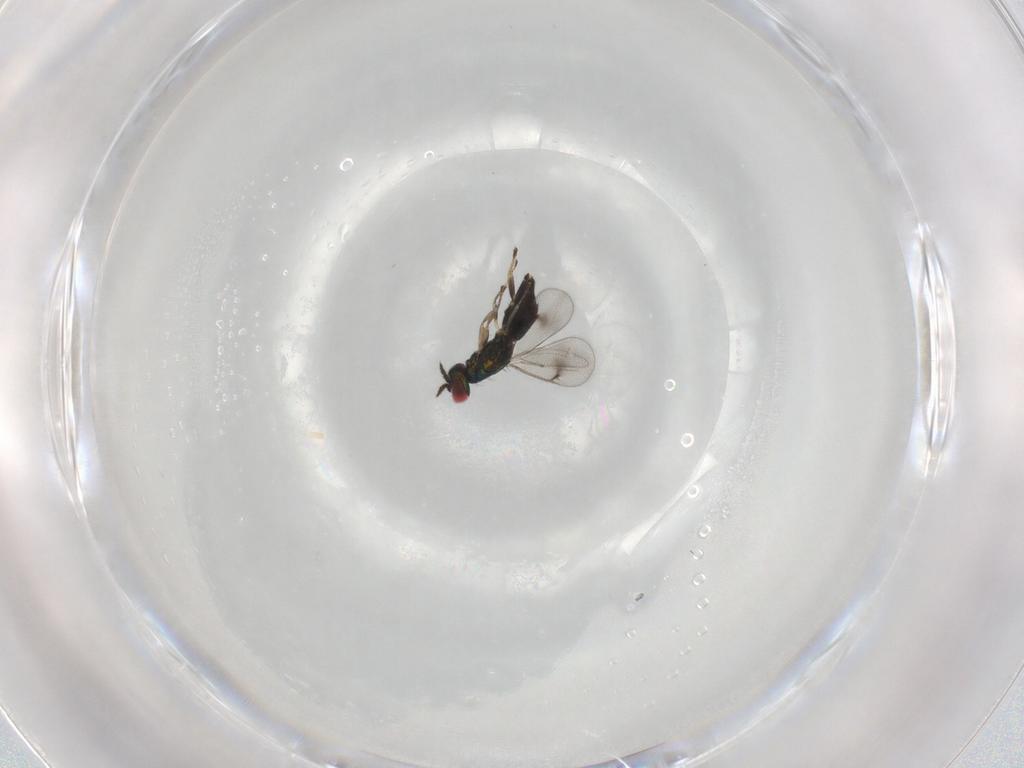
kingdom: Animalia
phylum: Arthropoda
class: Insecta
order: Hymenoptera
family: Eulophidae
